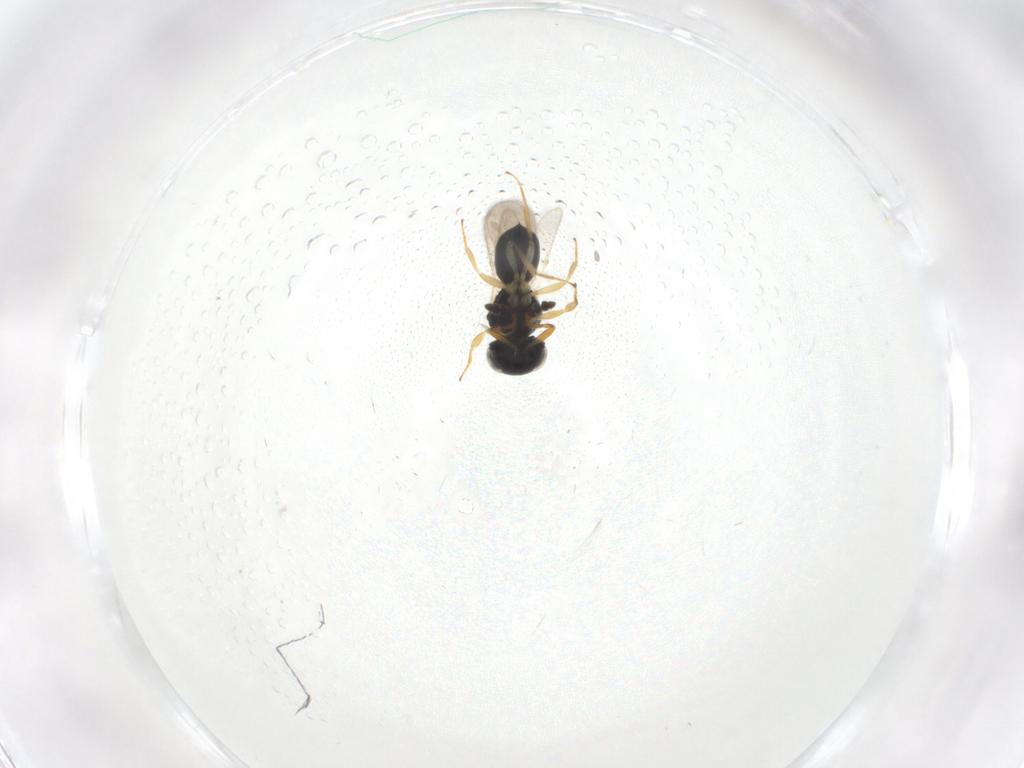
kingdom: Animalia
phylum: Arthropoda
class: Insecta
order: Hymenoptera
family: Scelionidae
